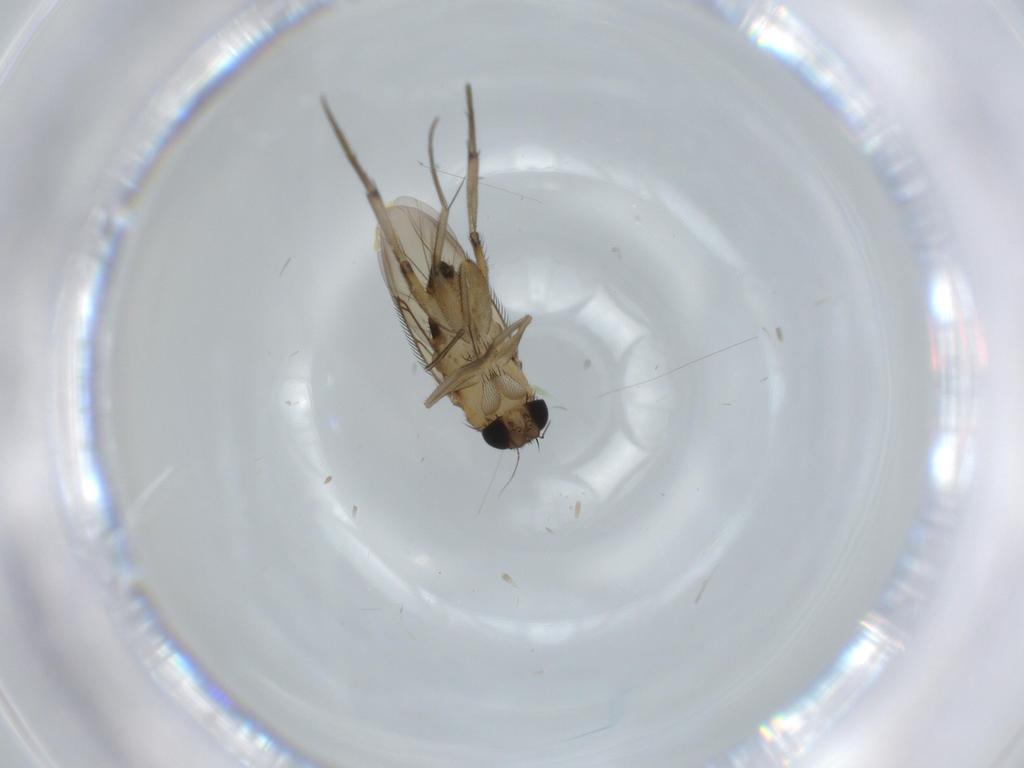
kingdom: Animalia
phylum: Arthropoda
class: Insecta
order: Diptera
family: Phoridae
